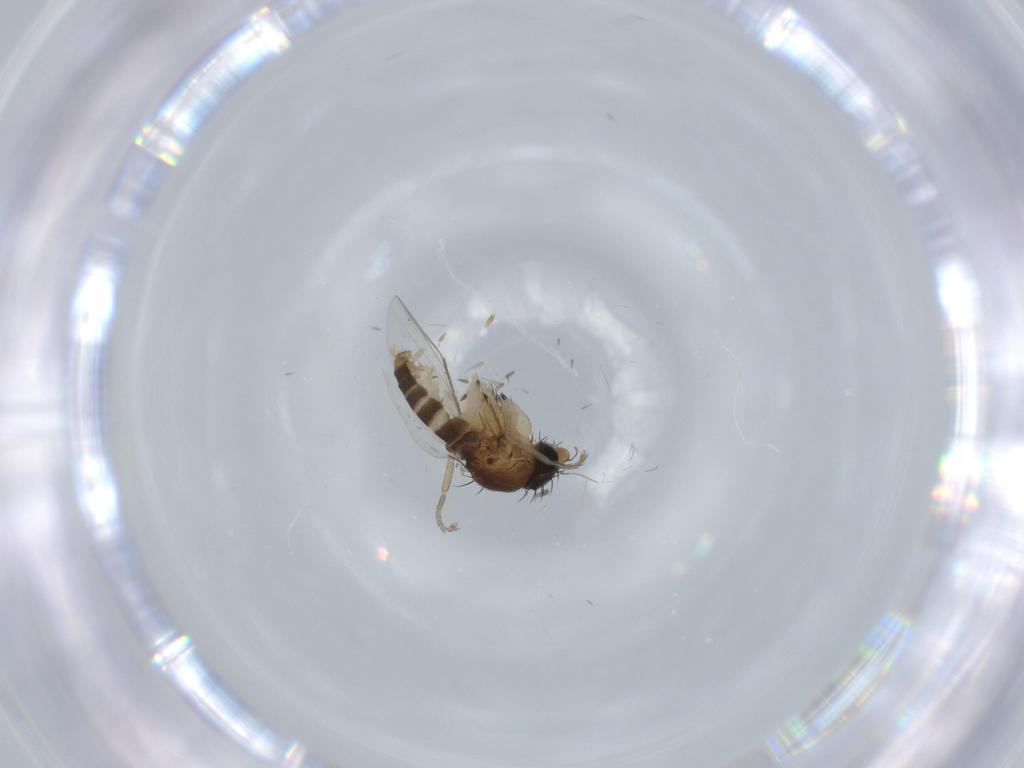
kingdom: Animalia
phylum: Arthropoda
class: Insecta
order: Diptera
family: Phoridae
